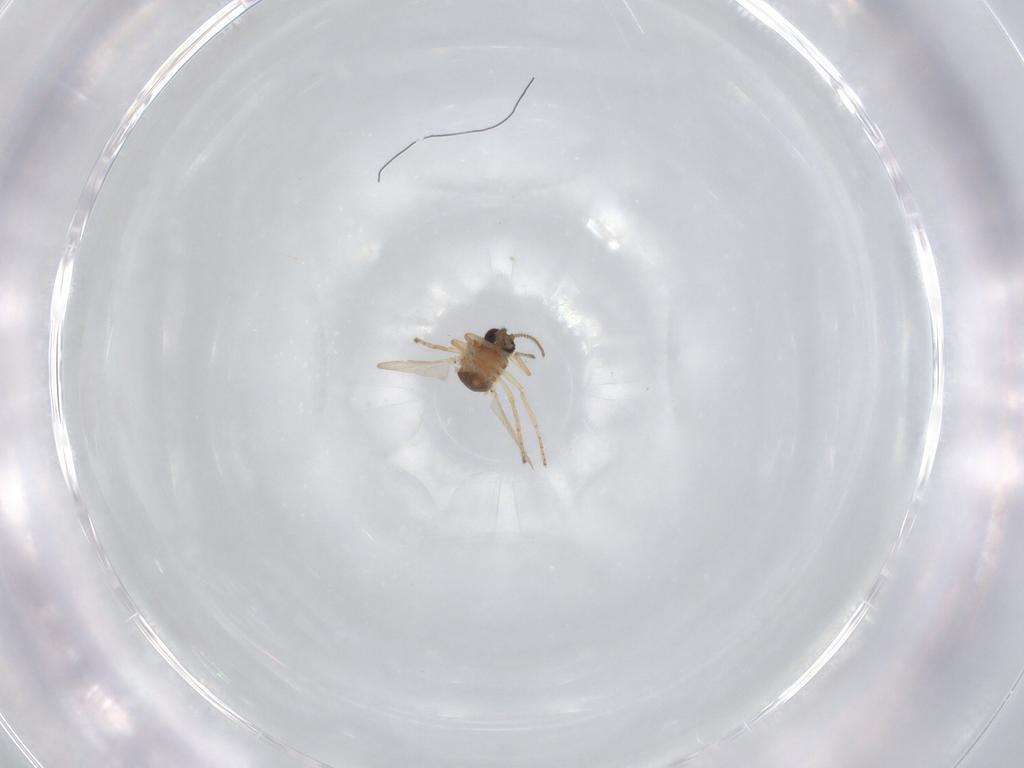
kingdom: Animalia
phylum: Arthropoda
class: Insecta
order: Diptera
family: Ceratopogonidae
